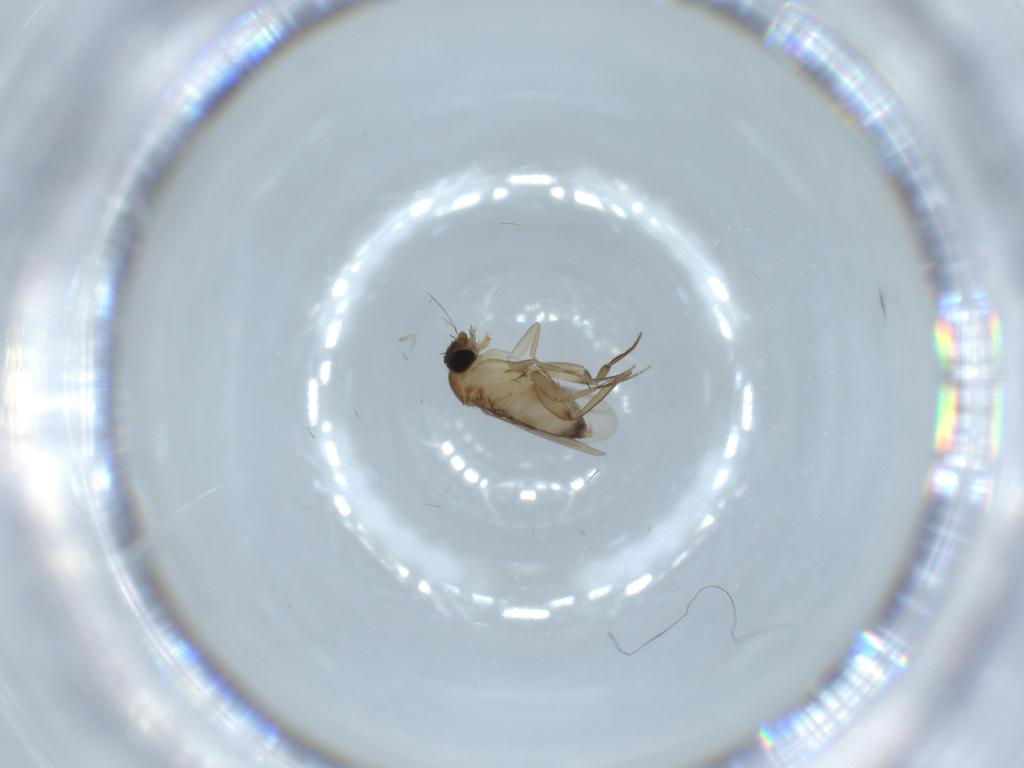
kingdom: Animalia
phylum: Arthropoda
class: Insecta
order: Diptera
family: Phoridae
